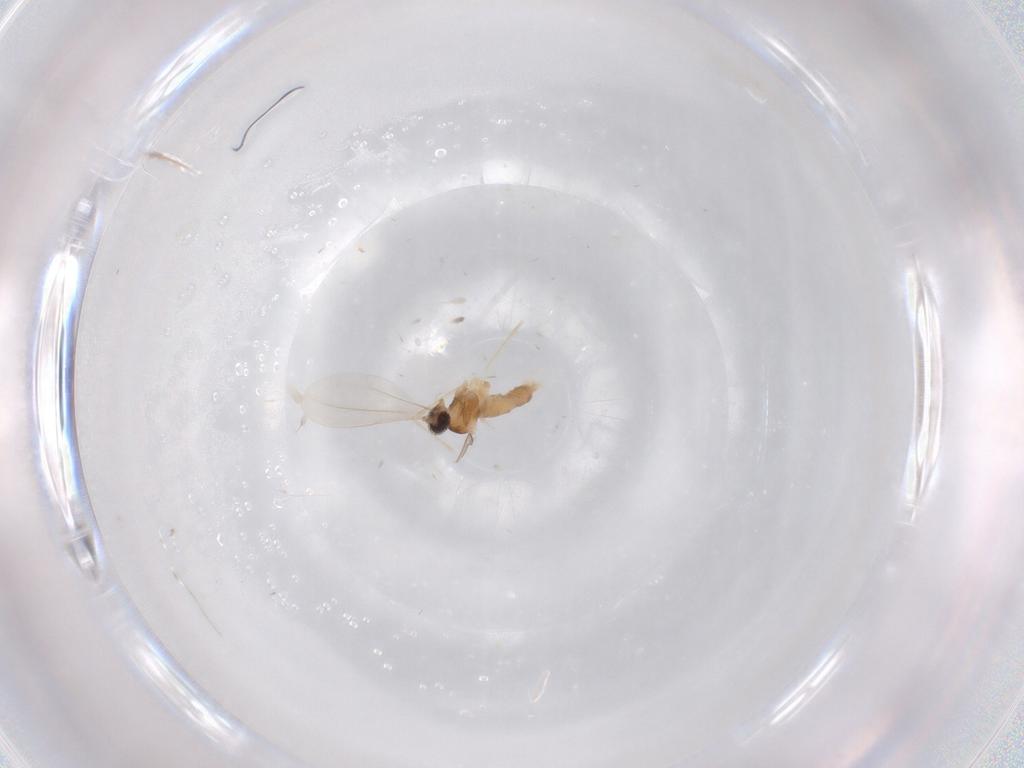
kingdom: Animalia
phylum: Arthropoda
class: Insecta
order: Diptera
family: Cecidomyiidae
